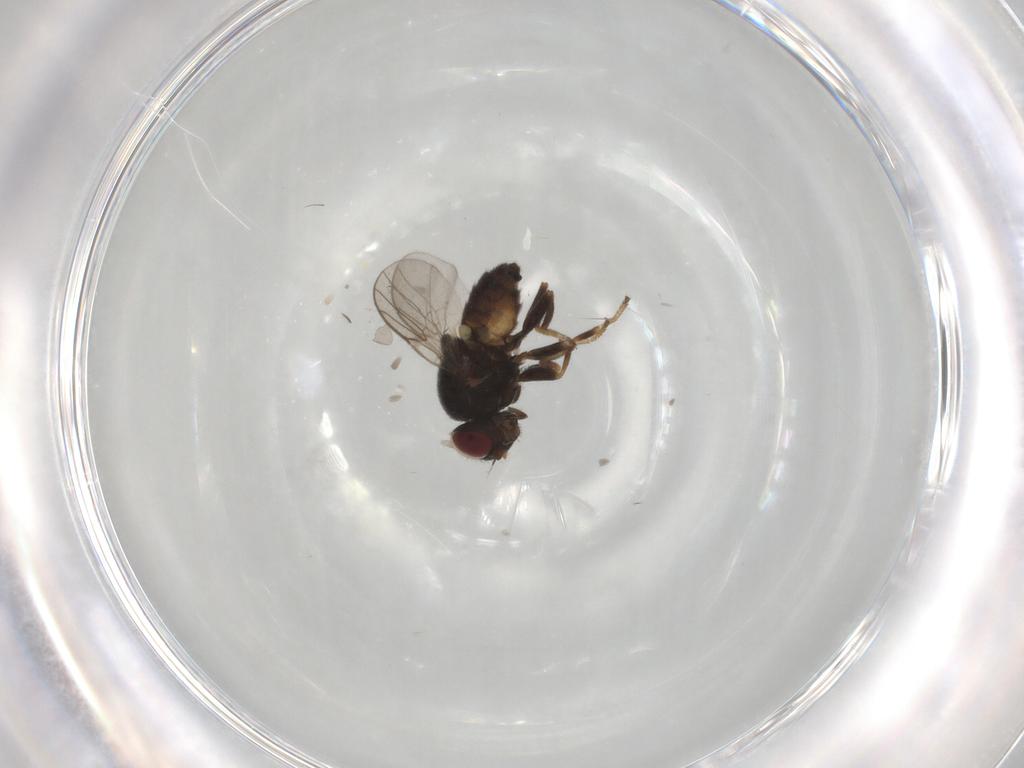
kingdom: Animalia
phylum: Arthropoda
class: Insecta
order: Diptera
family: Chloropidae
